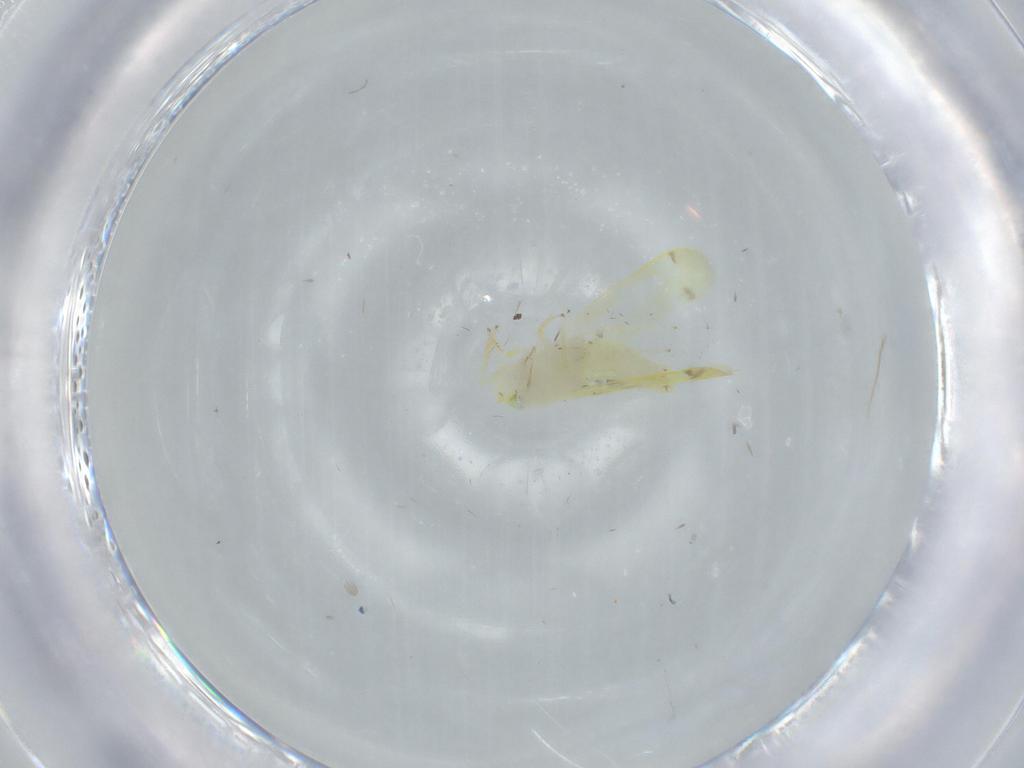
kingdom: Animalia
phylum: Arthropoda
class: Insecta
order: Hemiptera
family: Cicadellidae
